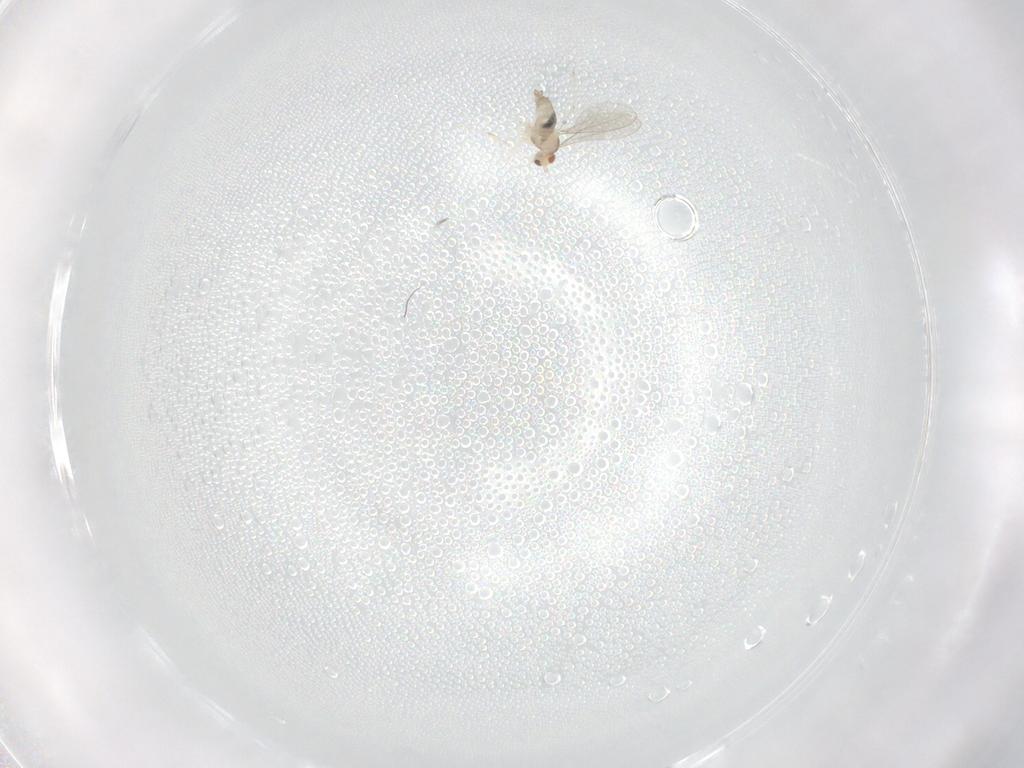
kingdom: Animalia
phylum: Arthropoda
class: Insecta
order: Diptera
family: Cecidomyiidae
